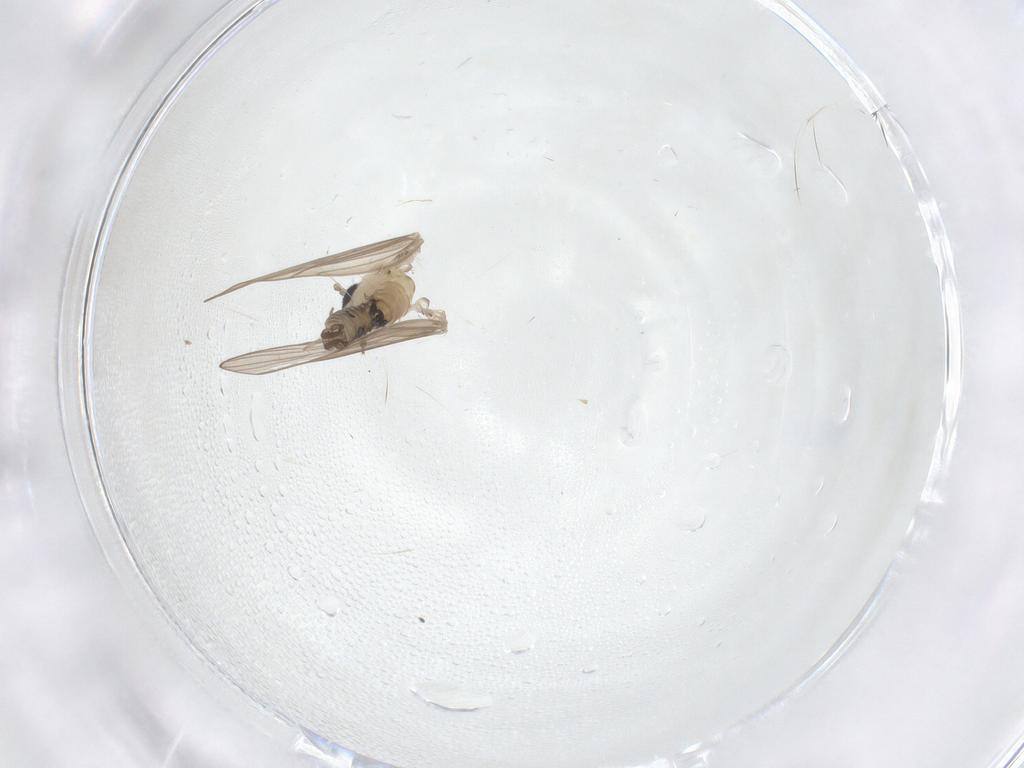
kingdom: Animalia
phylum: Arthropoda
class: Insecta
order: Diptera
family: Psychodidae
